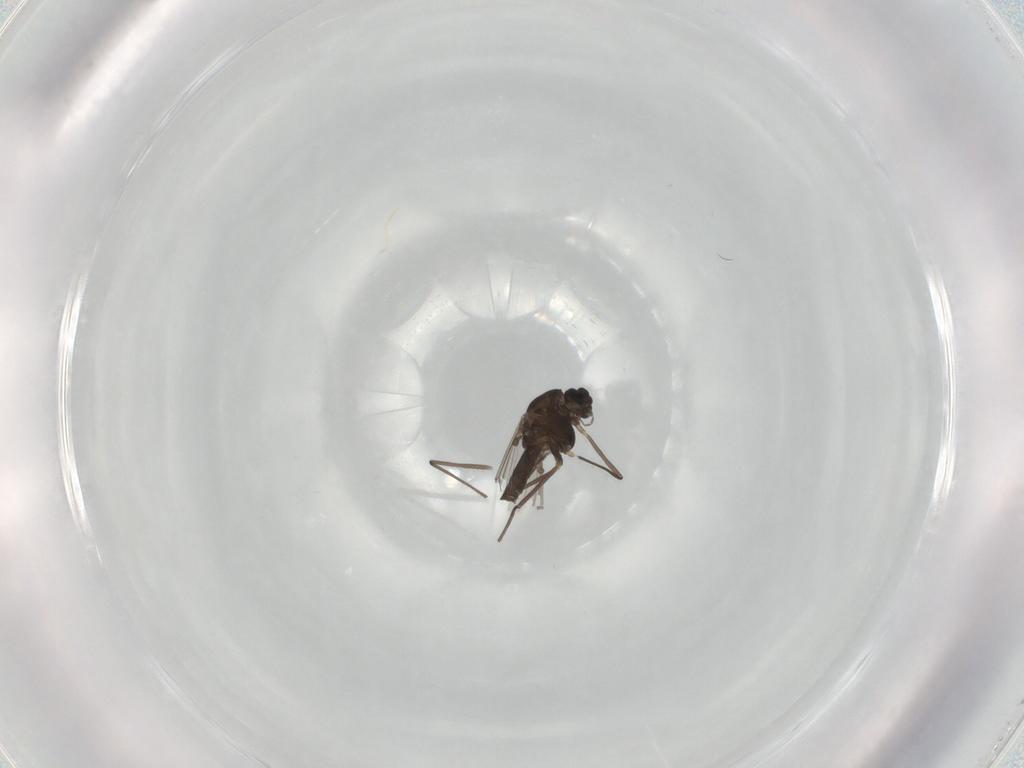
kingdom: Animalia
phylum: Arthropoda
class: Insecta
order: Diptera
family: Chironomidae
